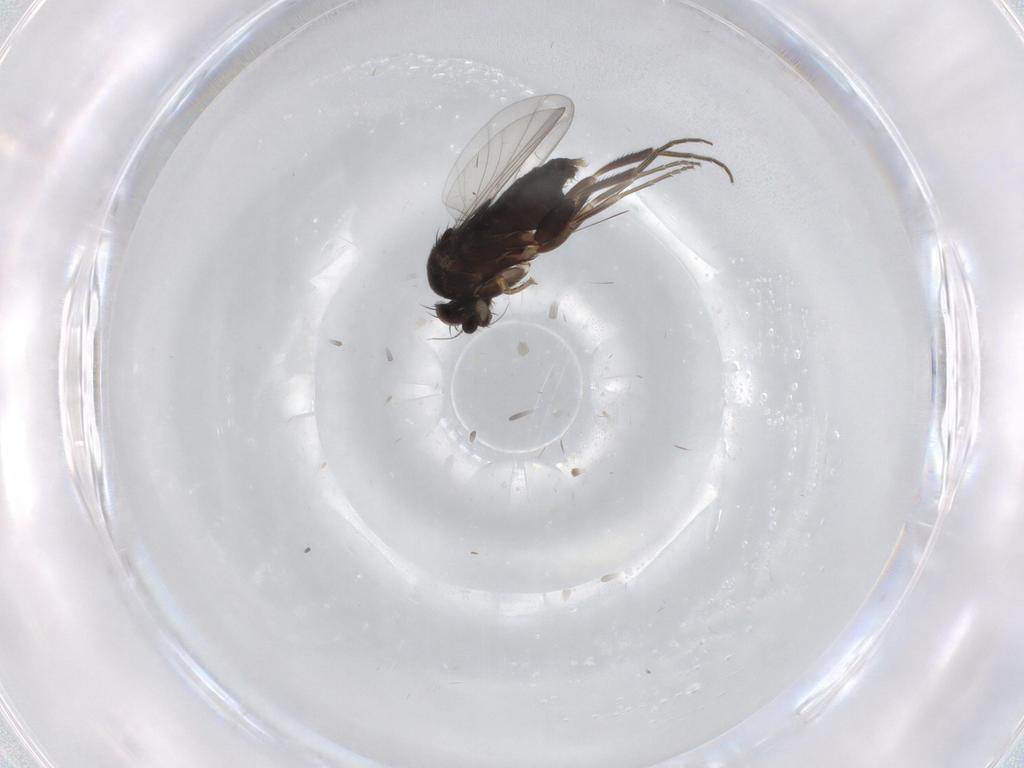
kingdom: Animalia
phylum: Arthropoda
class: Insecta
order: Diptera
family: Phoridae
